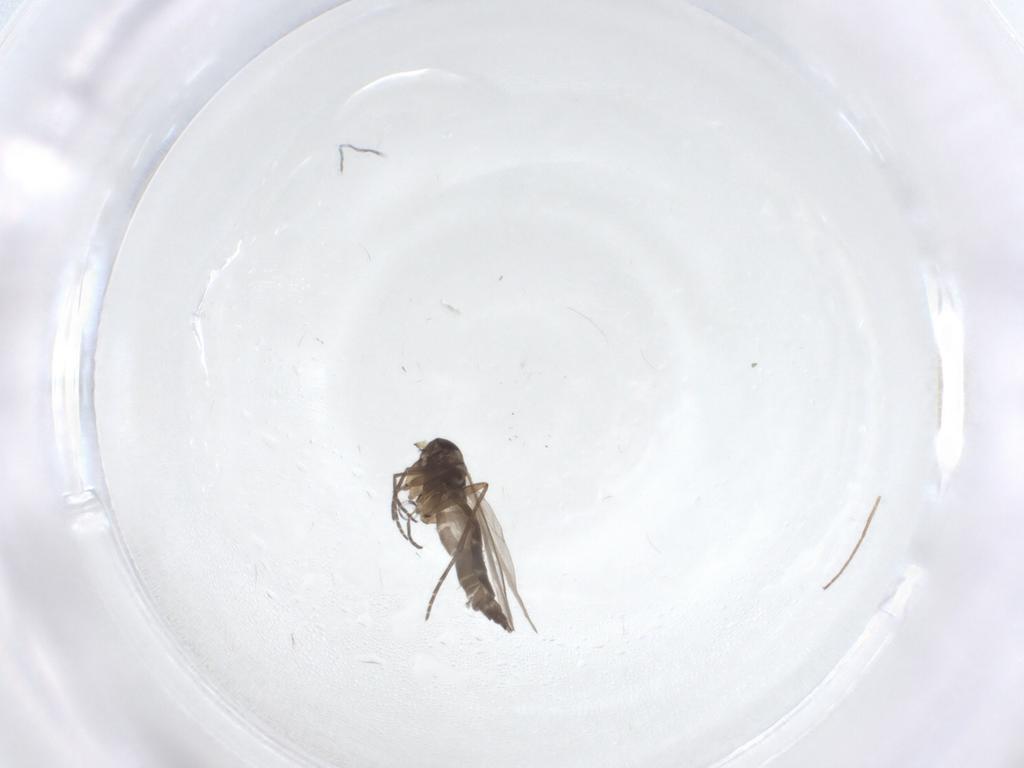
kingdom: Animalia
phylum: Arthropoda
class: Insecta
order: Diptera
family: Sciaridae
